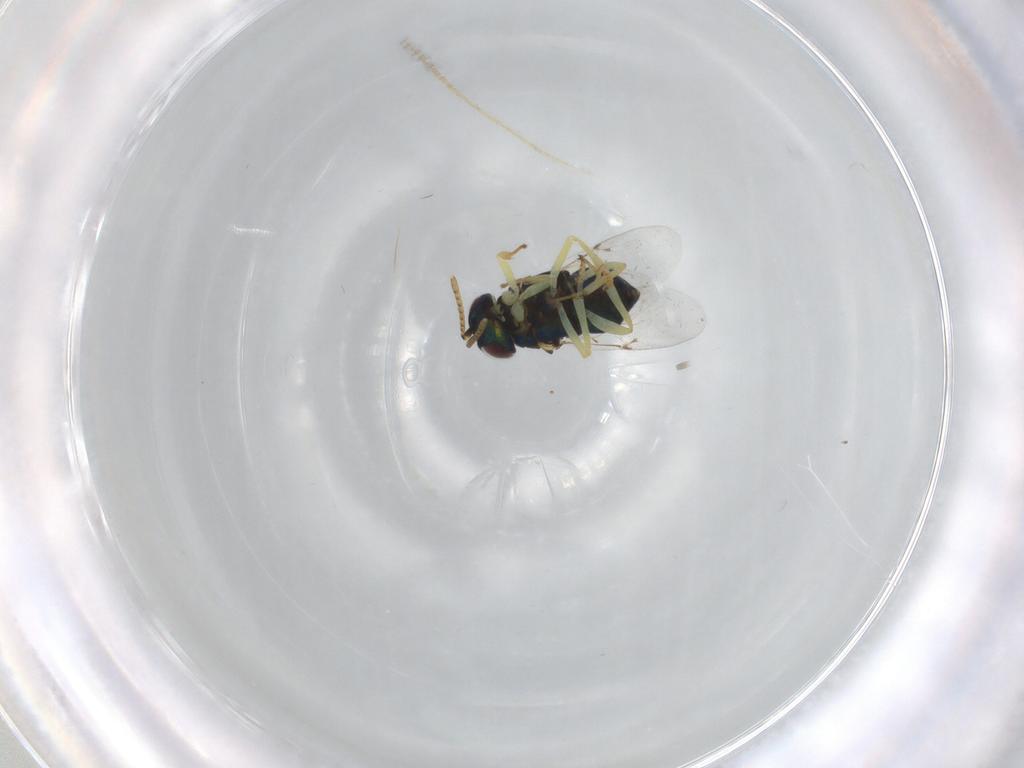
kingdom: Animalia
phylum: Arthropoda
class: Insecta
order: Hymenoptera
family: Encyrtidae
